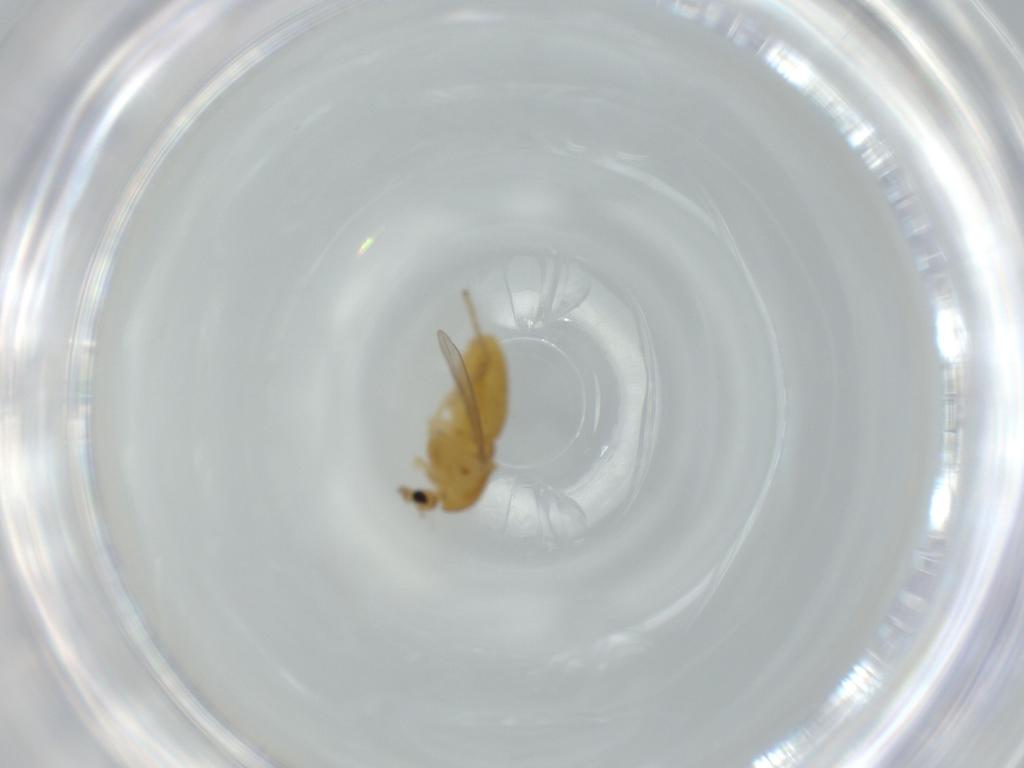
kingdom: Animalia
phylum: Arthropoda
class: Insecta
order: Diptera
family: Chironomidae
